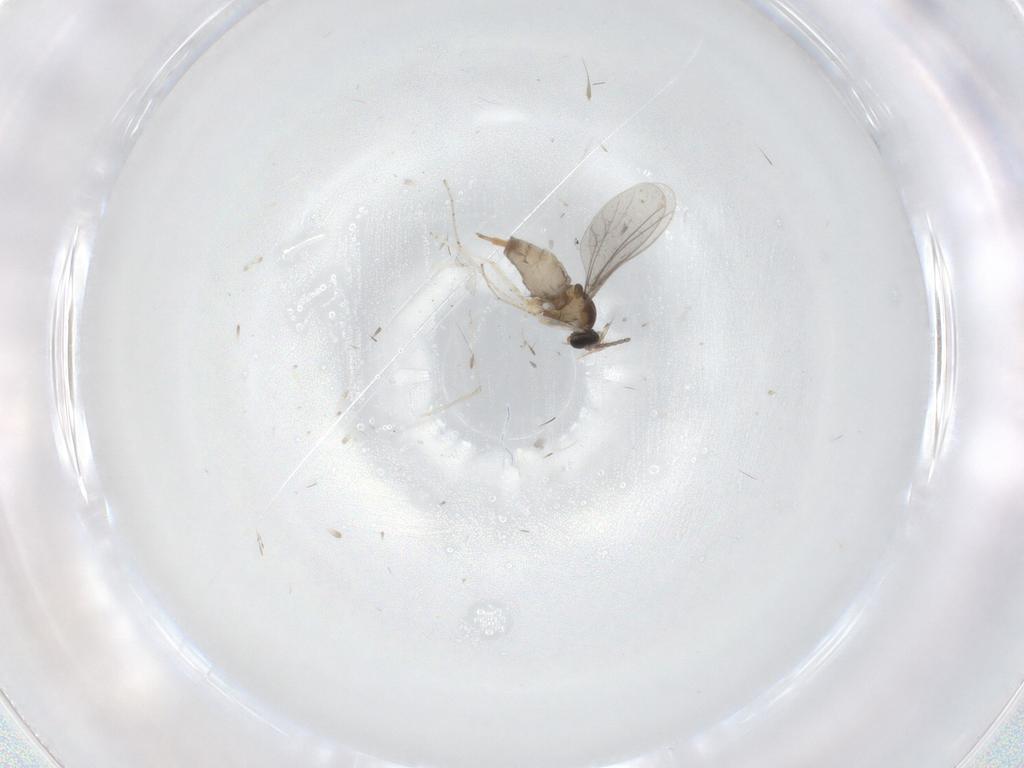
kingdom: Animalia
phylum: Arthropoda
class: Insecta
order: Diptera
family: Cecidomyiidae
